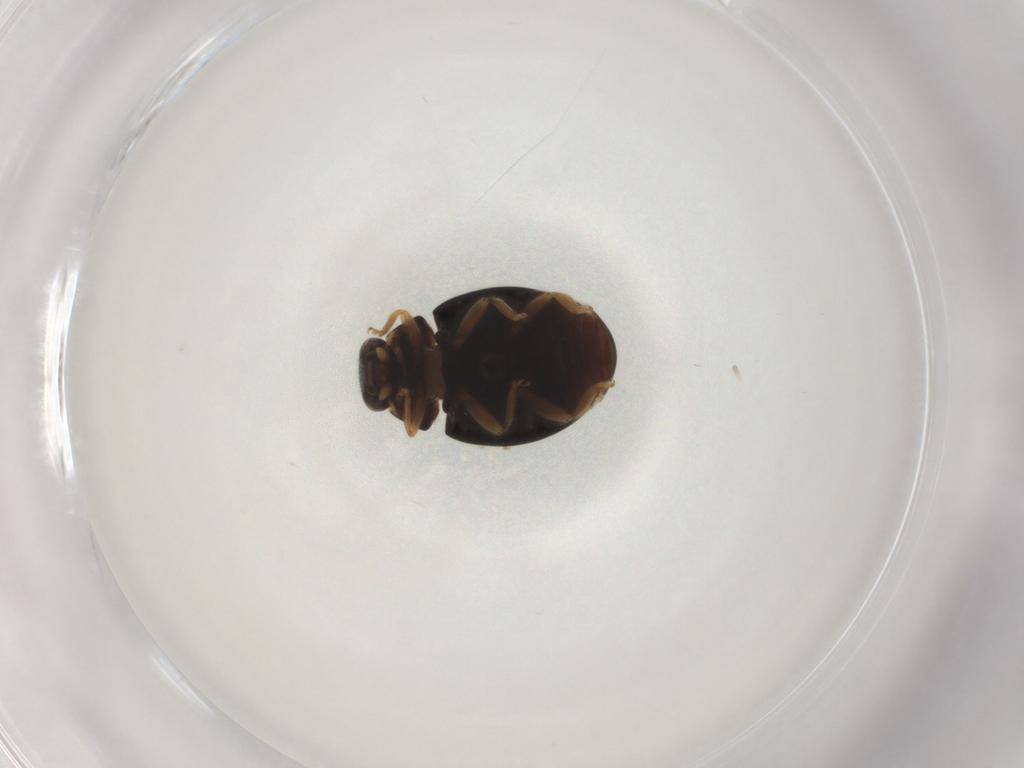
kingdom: Animalia
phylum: Arthropoda
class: Insecta
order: Coleoptera
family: Coccinellidae
